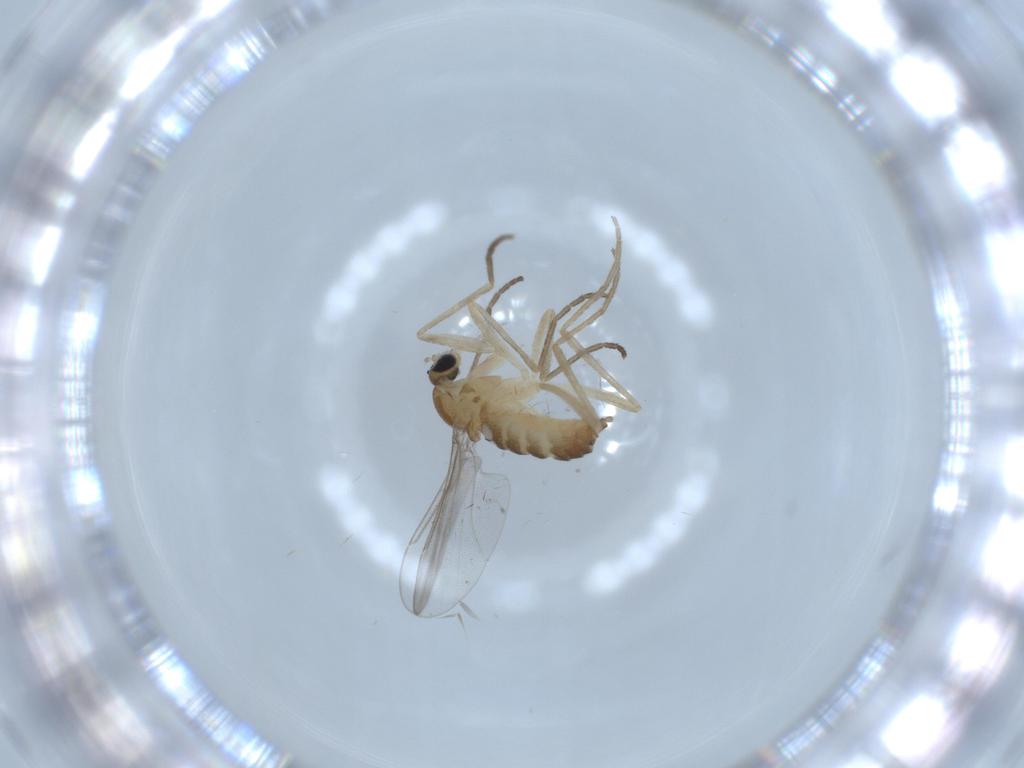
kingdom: Animalia
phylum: Arthropoda
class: Insecta
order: Diptera
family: Cecidomyiidae
